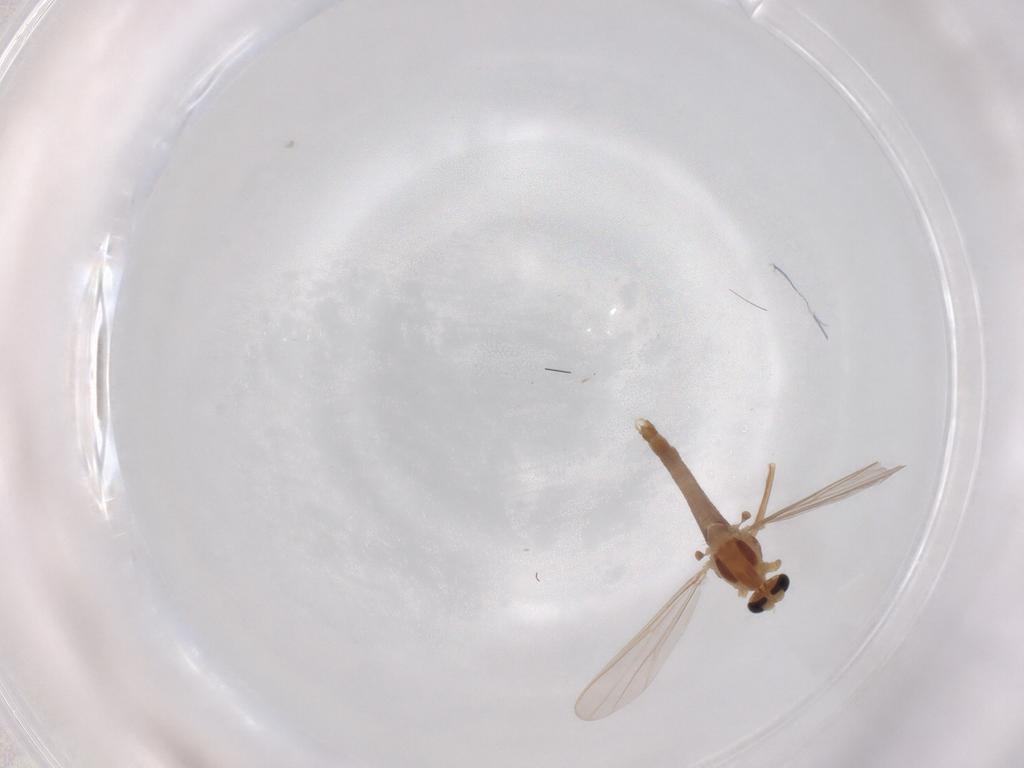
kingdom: Animalia
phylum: Arthropoda
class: Insecta
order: Diptera
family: Chironomidae
